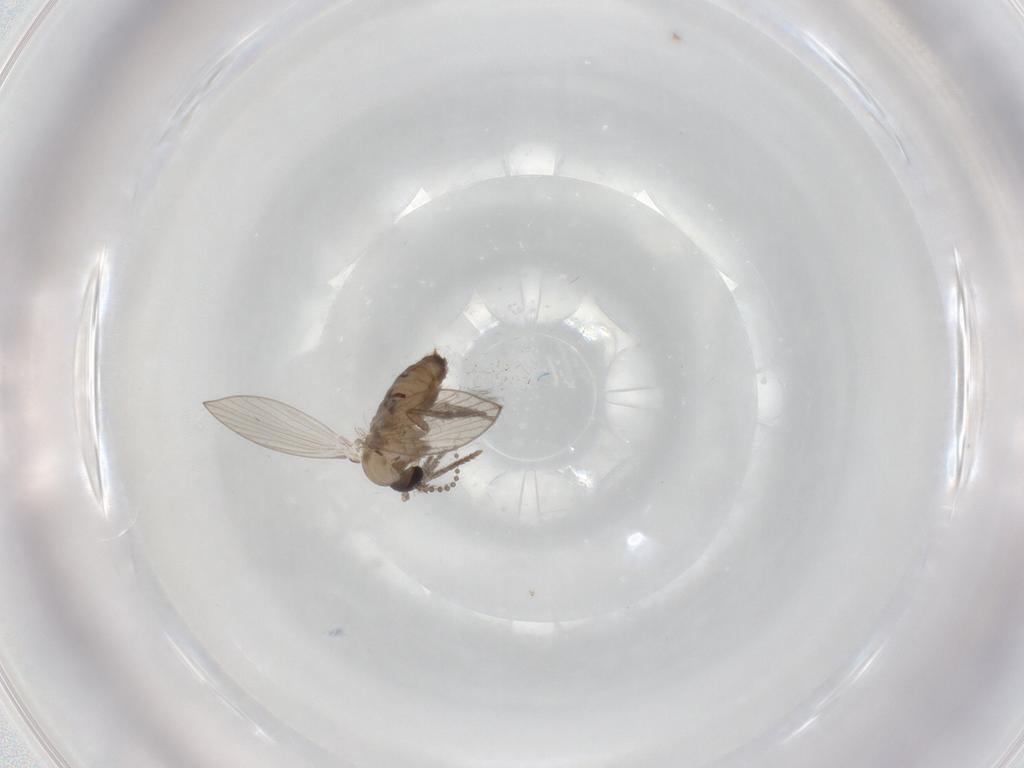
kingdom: Animalia
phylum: Arthropoda
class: Insecta
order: Diptera
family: Psychodidae
